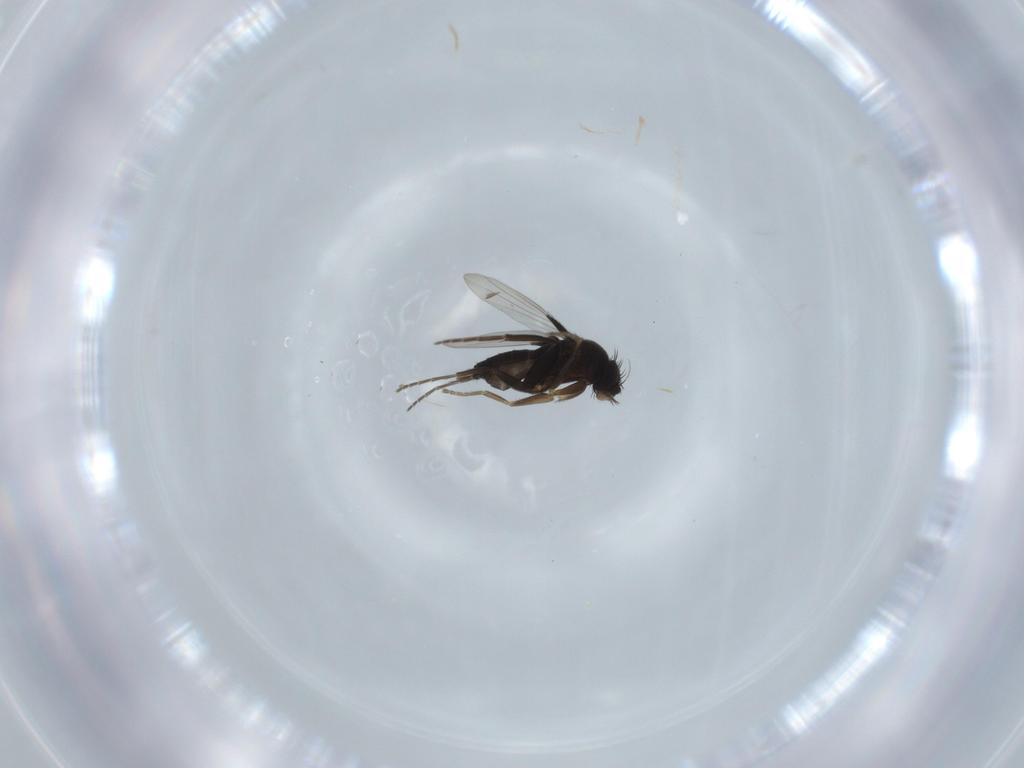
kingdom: Animalia
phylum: Arthropoda
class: Insecta
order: Diptera
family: Phoridae
